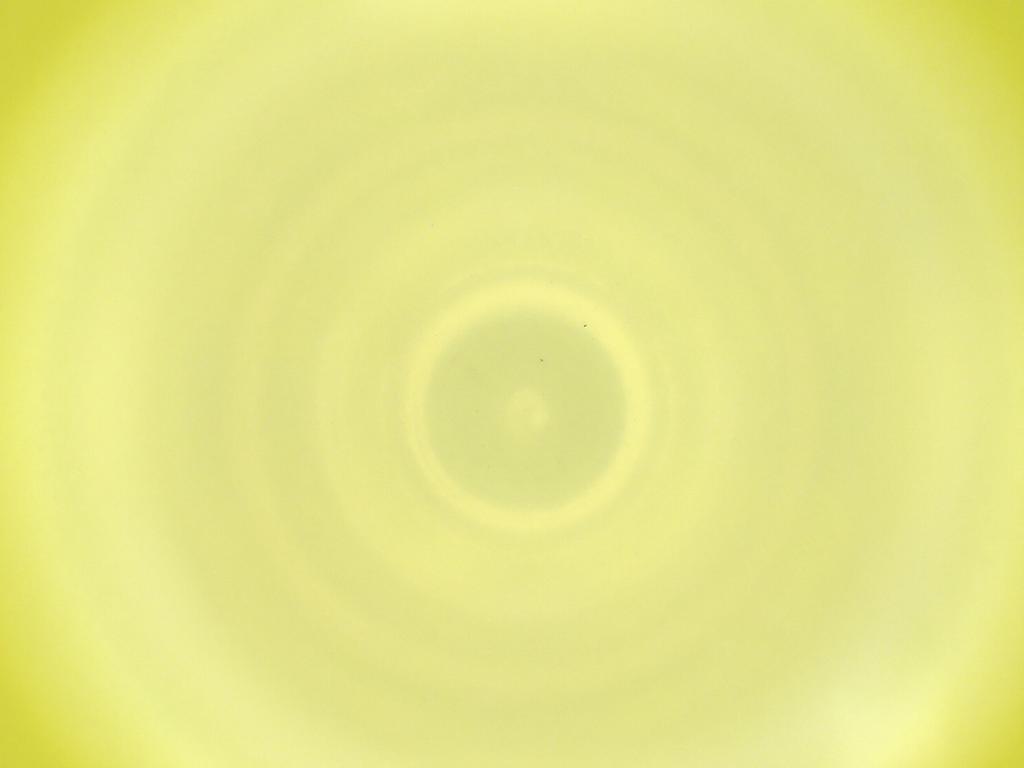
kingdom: Animalia
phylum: Arthropoda
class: Insecta
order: Diptera
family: Cecidomyiidae
